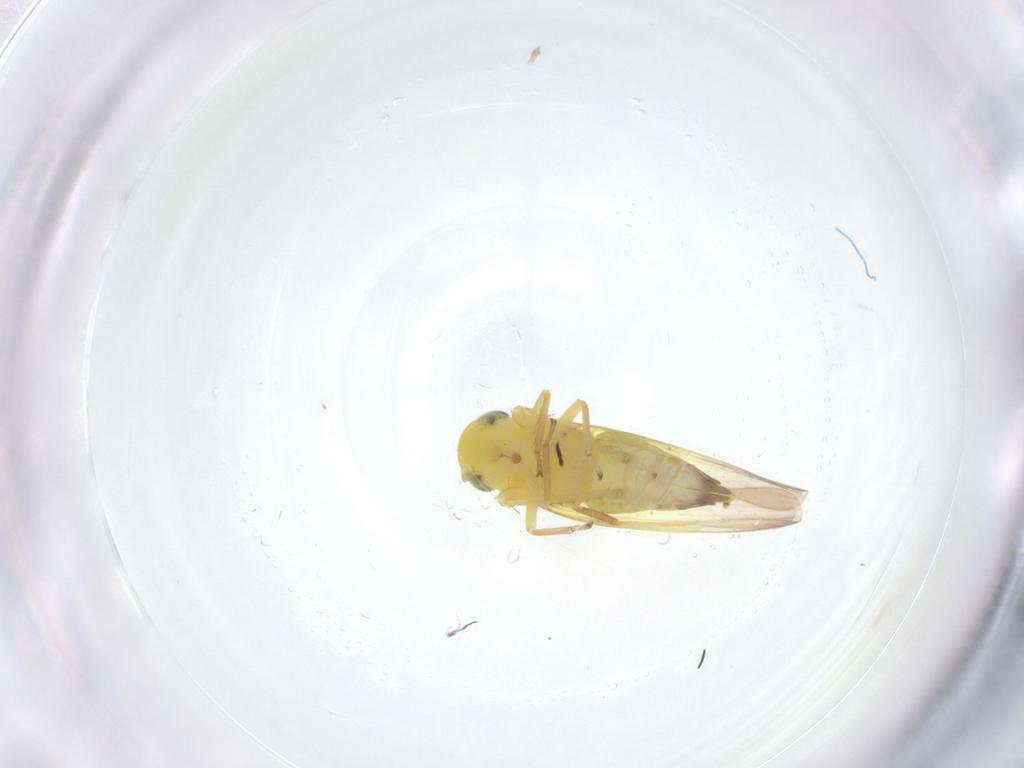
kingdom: Animalia
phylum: Arthropoda
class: Insecta
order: Hemiptera
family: Cicadellidae
